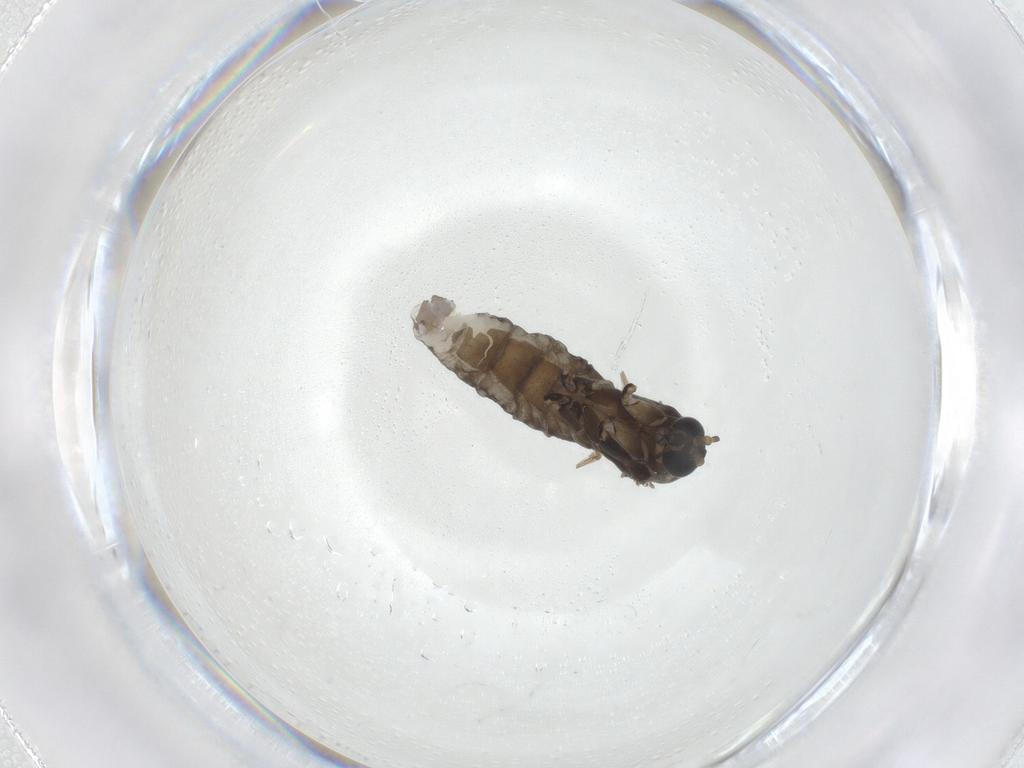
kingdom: Animalia
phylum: Arthropoda
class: Insecta
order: Diptera
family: Sciaridae
